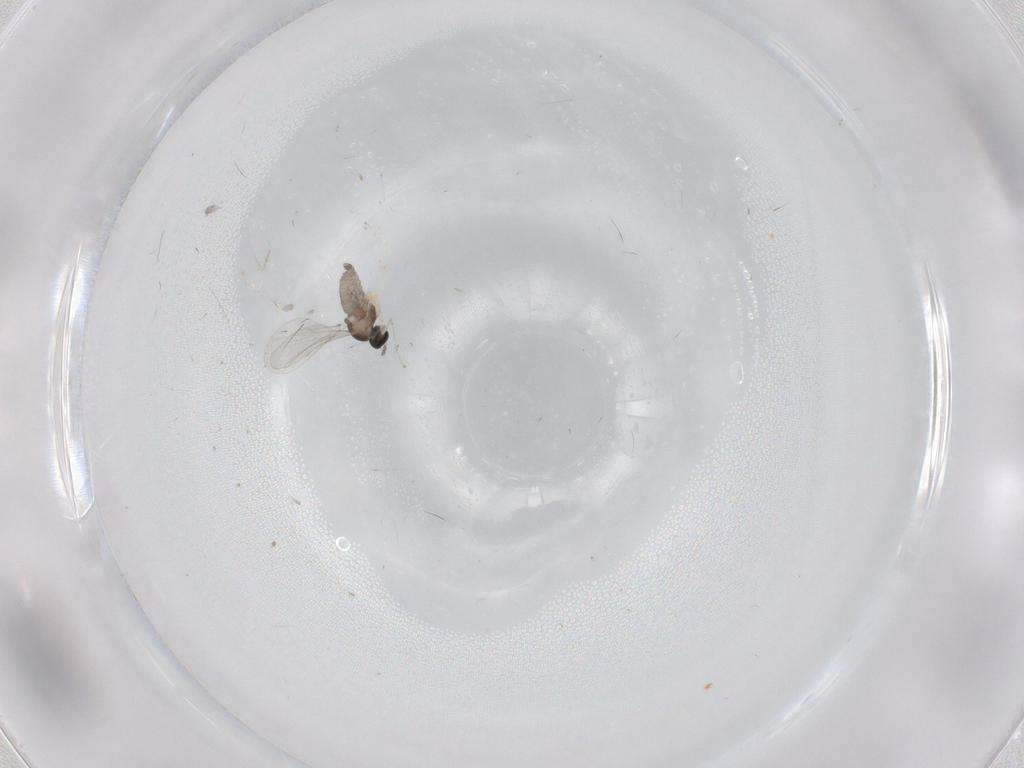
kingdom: Animalia
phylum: Arthropoda
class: Insecta
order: Diptera
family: Cecidomyiidae
